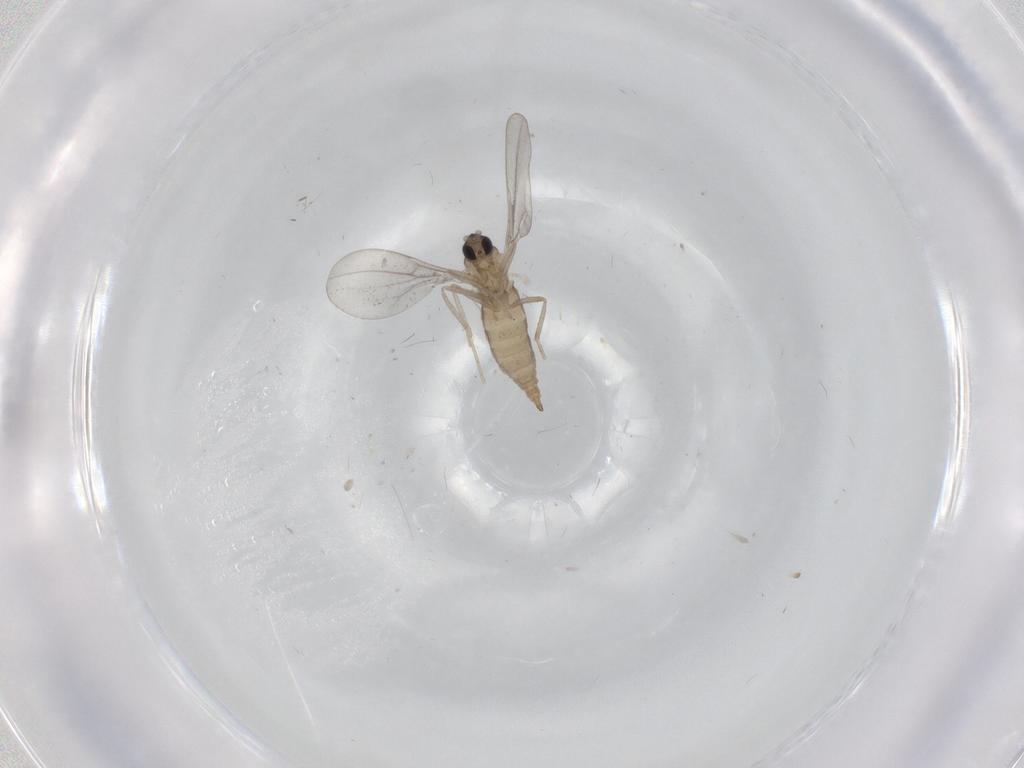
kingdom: Animalia
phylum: Arthropoda
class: Insecta
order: Diptera
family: Cecidomyiidae
